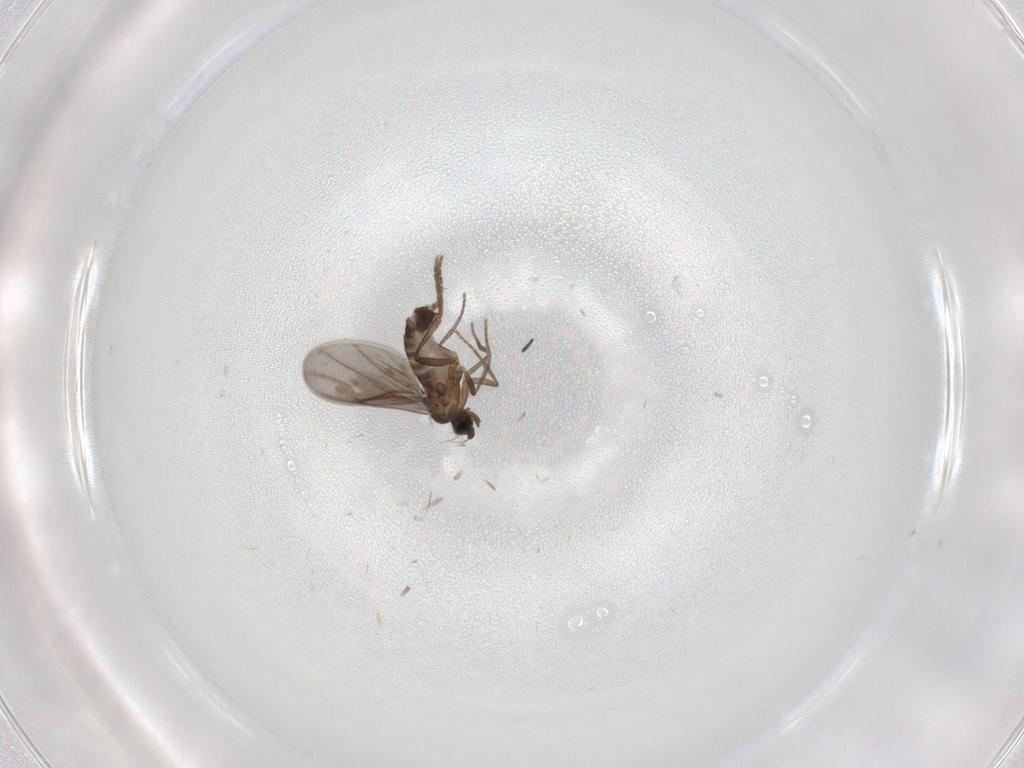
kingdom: Animalia
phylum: Arthropoda
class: Insecta
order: Diptera
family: Phoridae
